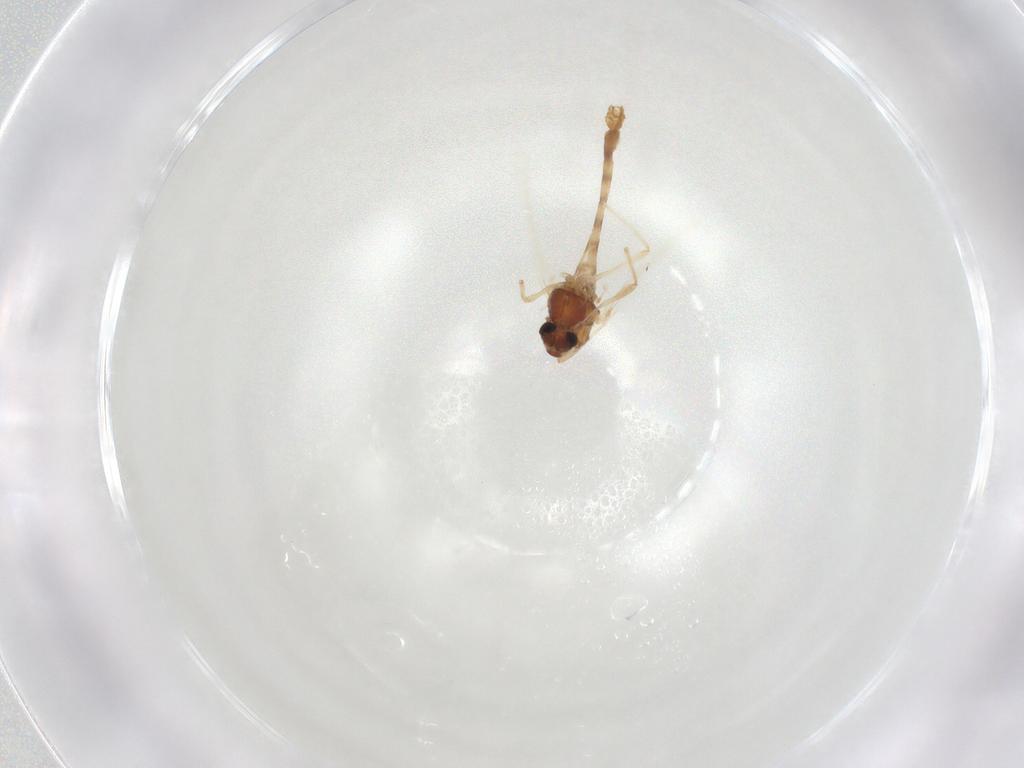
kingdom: Animalia
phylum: Arthropoda
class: Insecta
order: Diptera
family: Chironomidae
